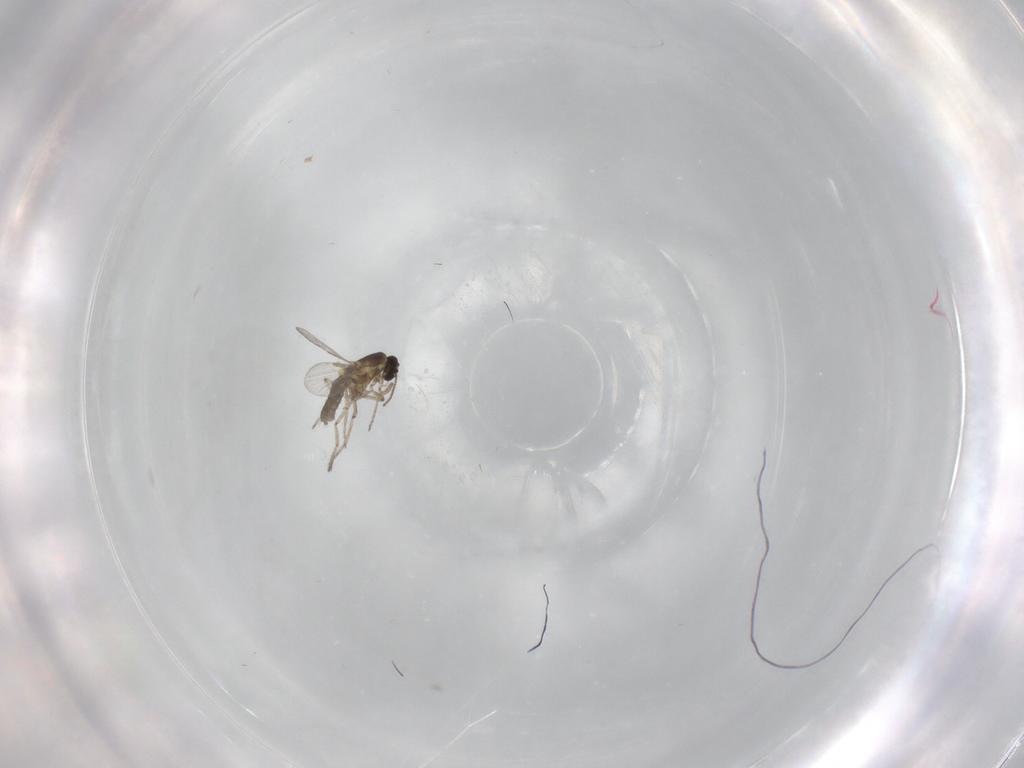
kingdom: Animalia
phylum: Arthropoda
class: Insecta
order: Diptera
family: Ceratopogonidae
